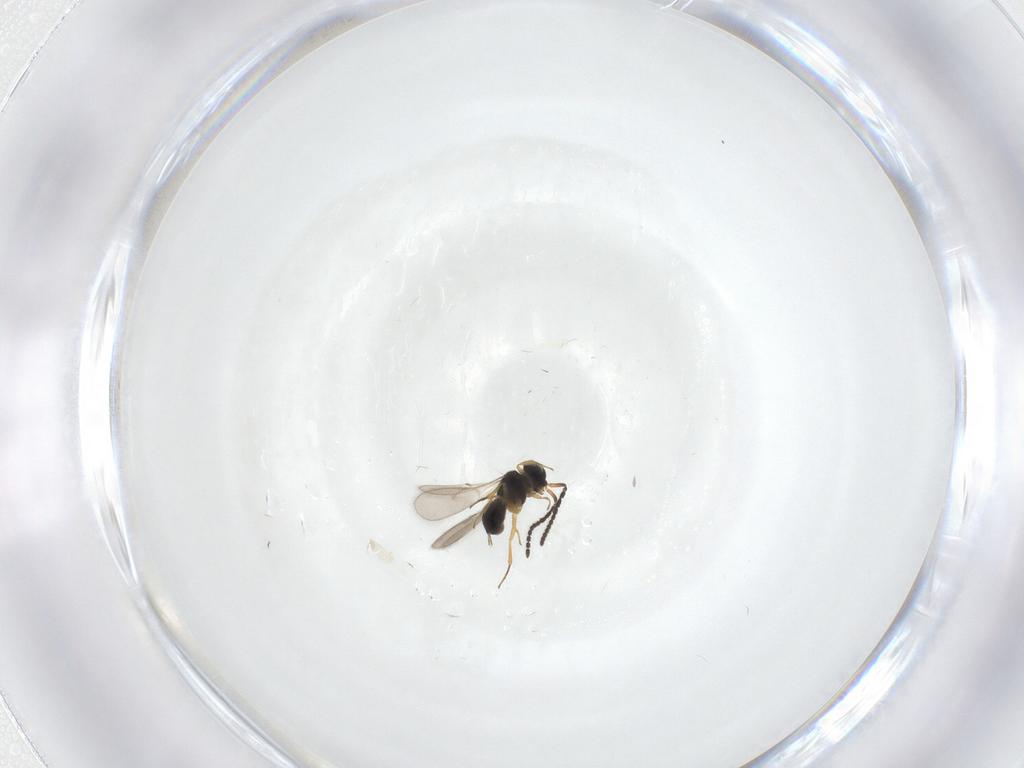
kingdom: Animalia
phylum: Arthropoda
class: Insecta
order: Hymenoptera
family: Scelionidae
